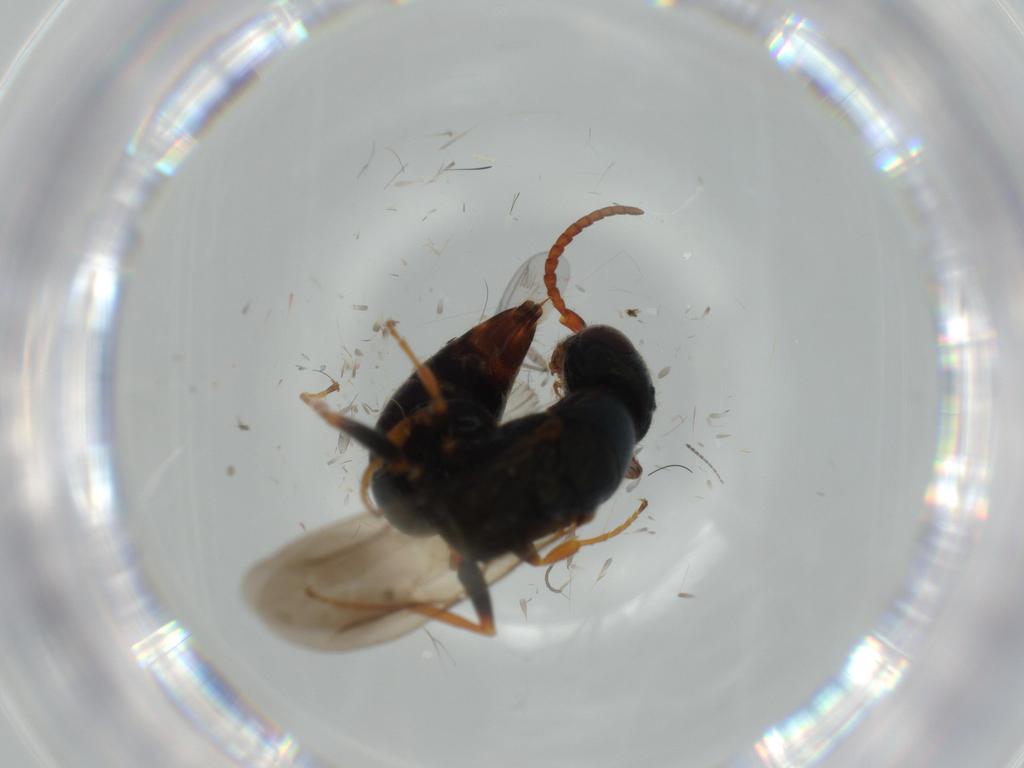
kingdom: Animalia
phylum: Arthropoda
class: Insecta
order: Hymenoptera
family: Bethylidae
